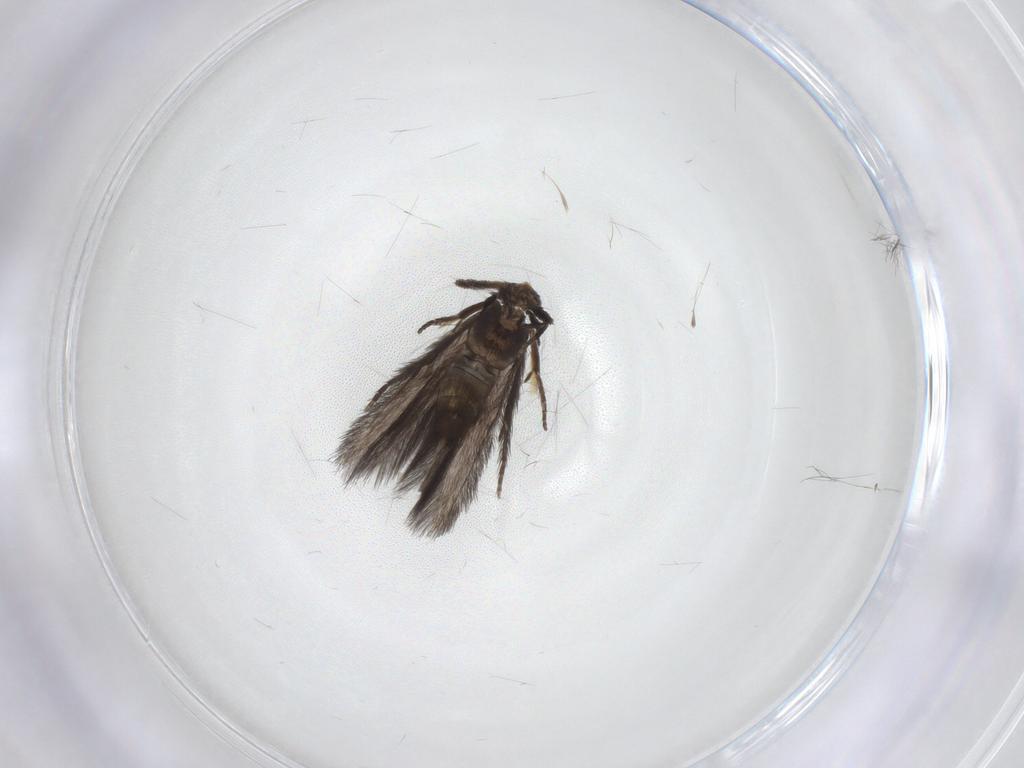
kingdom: Animalia
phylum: Arthropoda
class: Insecta
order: Trichoptera
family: Hydroptilidae
